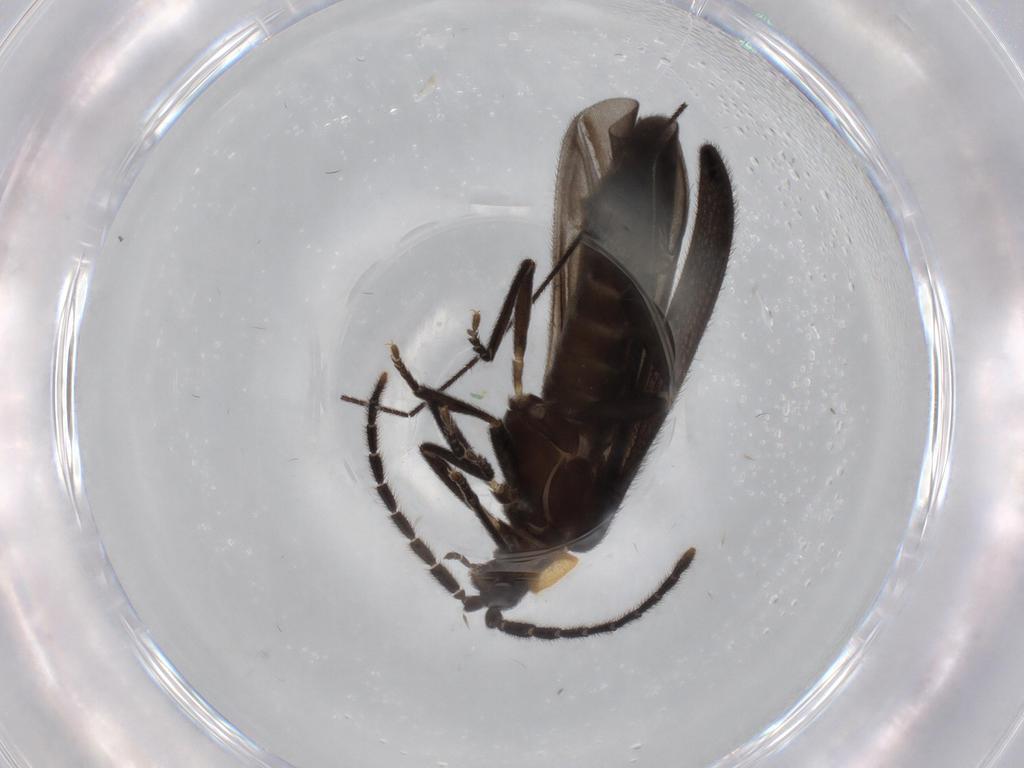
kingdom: Animalia
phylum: Arthropoda
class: Insecta
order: Coleoptera
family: Lycidae
